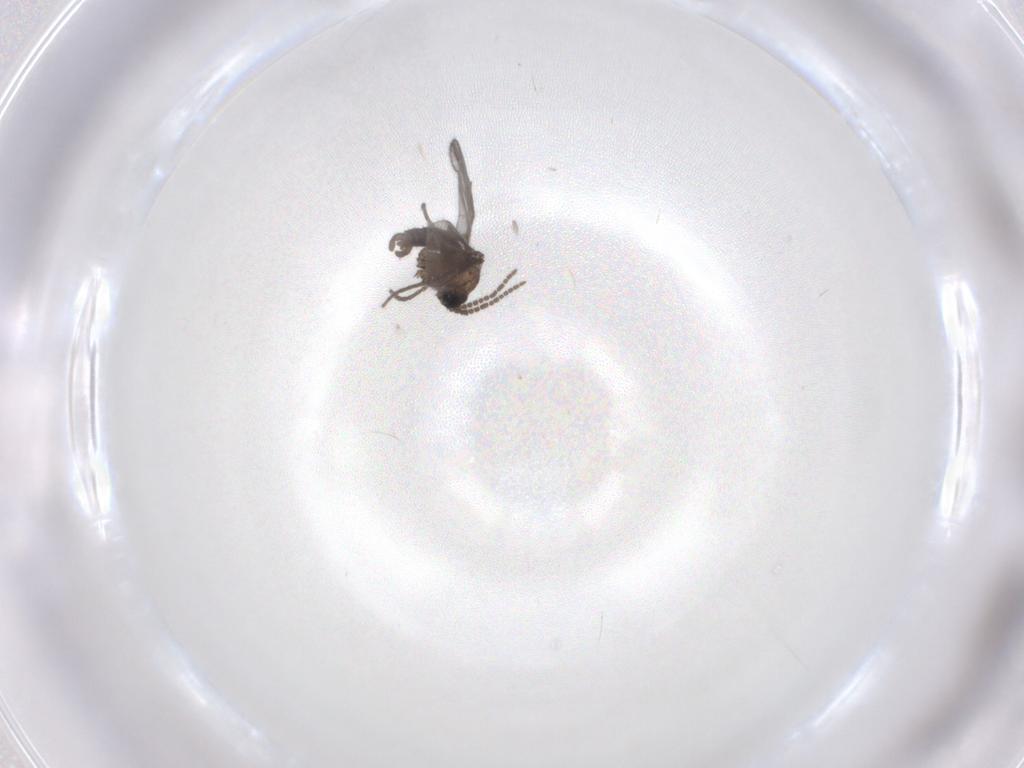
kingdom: Animalia
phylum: Arthropoda
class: Insecta
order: Diptera
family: Sciaridae
